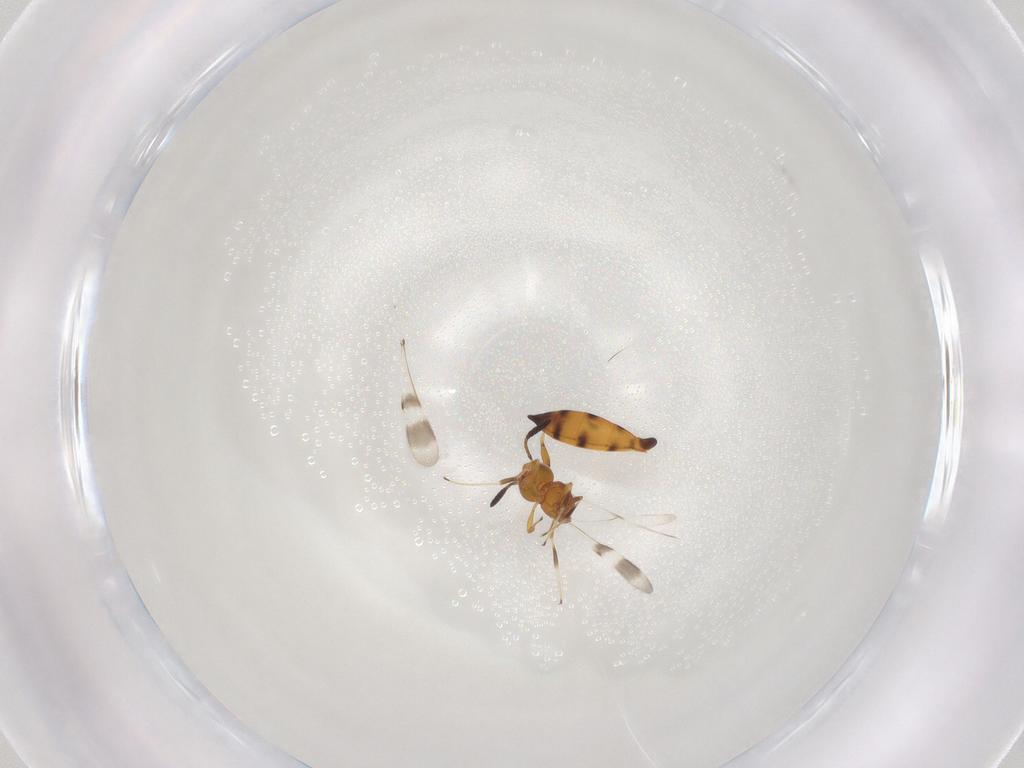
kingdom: Animalia
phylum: Arthropoda
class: Insecta
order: Hymenoptera
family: Scelionidae
